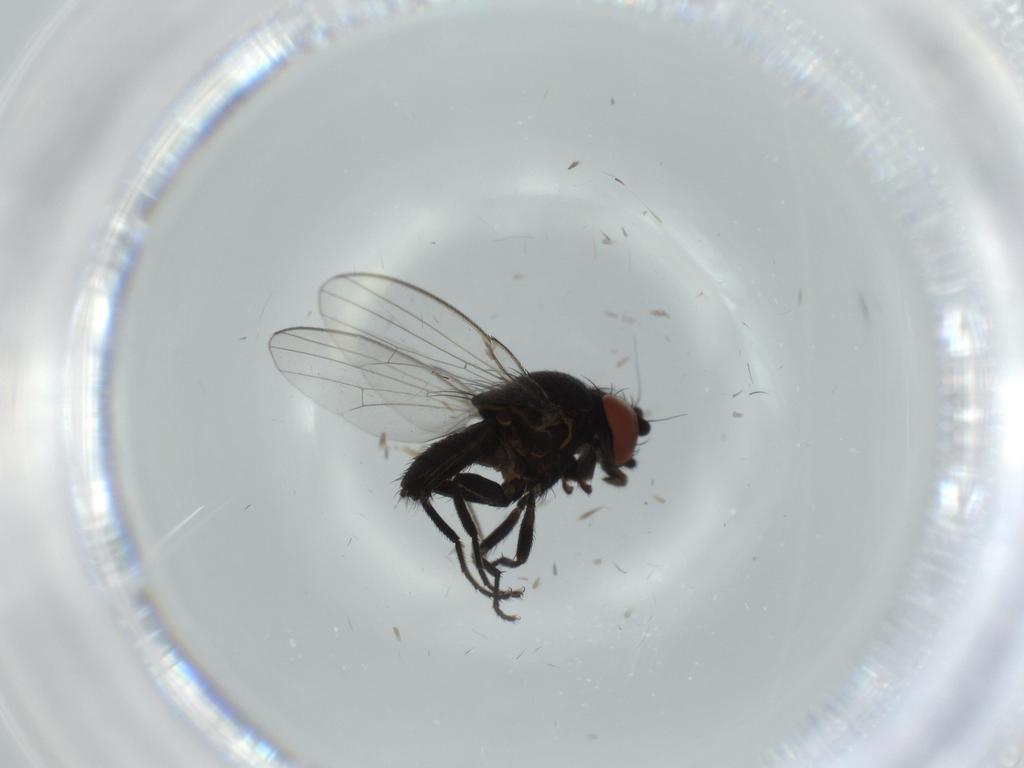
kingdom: Animalia
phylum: Arthropoda
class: Insecta
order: Diptera
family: Milichiidae
